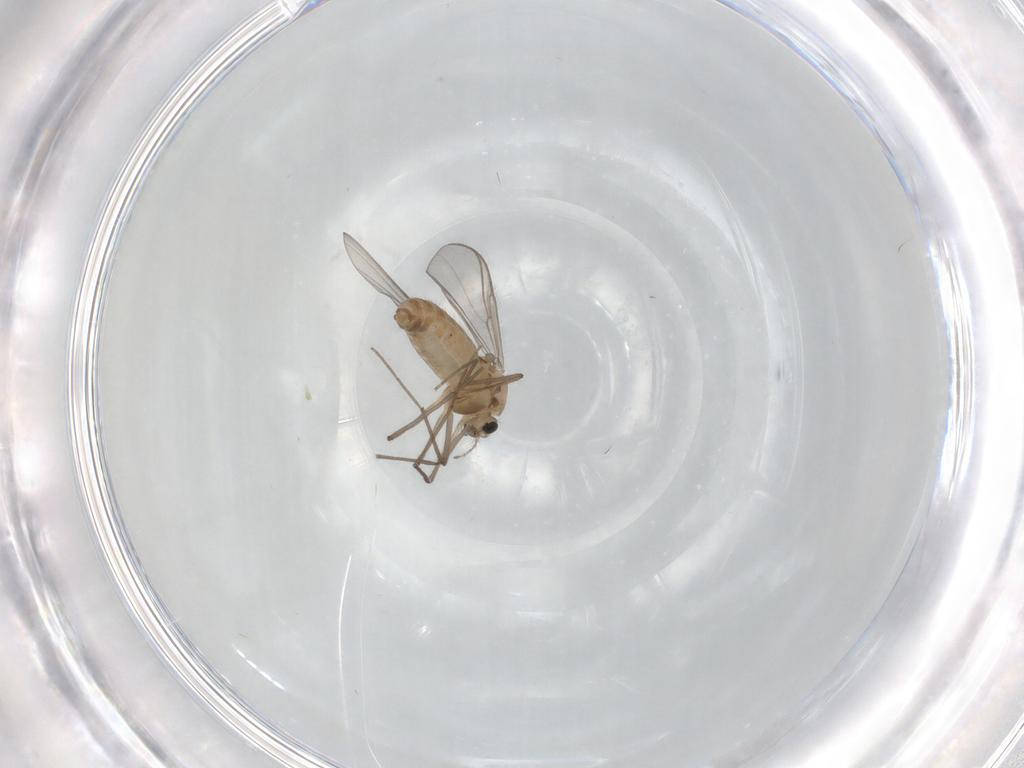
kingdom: Animalia
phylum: Arthropoda
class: Insecta
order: Diptera
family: Chironomidae
